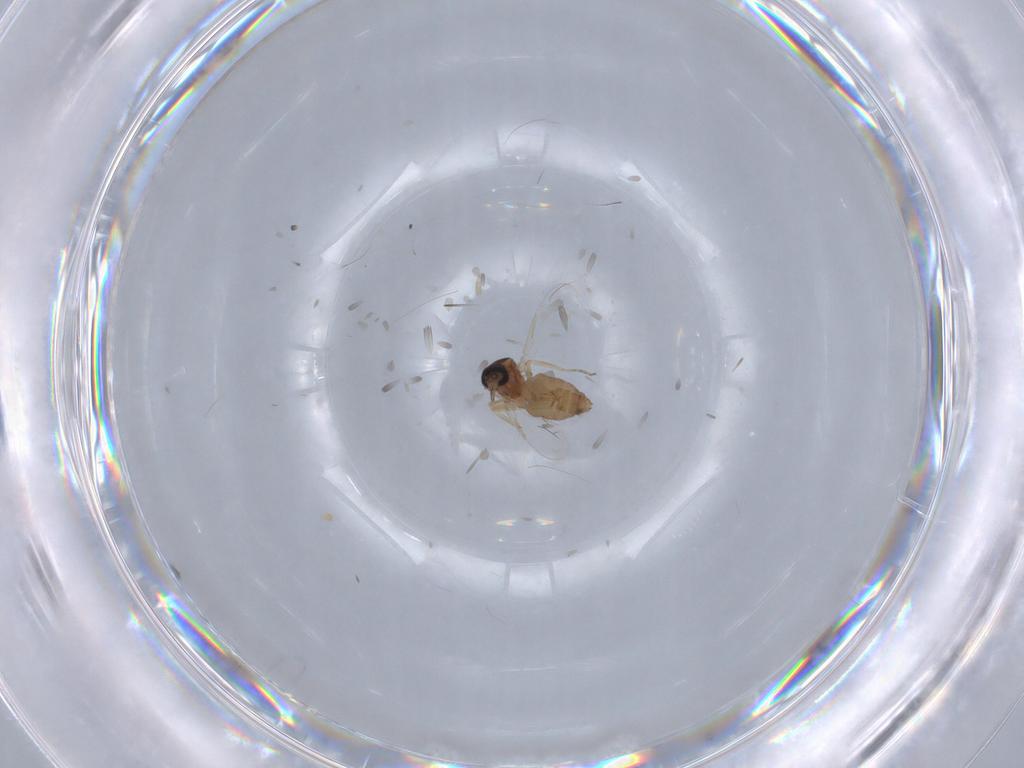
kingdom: Animalia
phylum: Arthropoda
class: Insecta
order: Diptera
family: Ceratopogonidae
